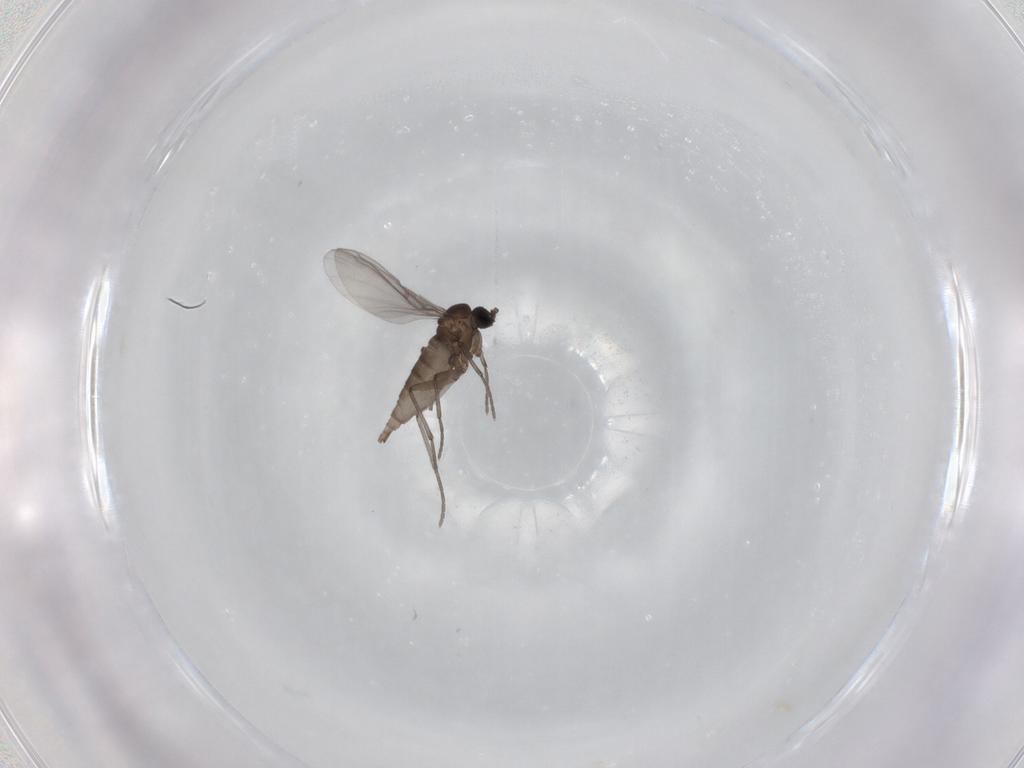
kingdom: Animalia
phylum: Arthropoda
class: Insecta
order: Diptera
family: Sciaridae
